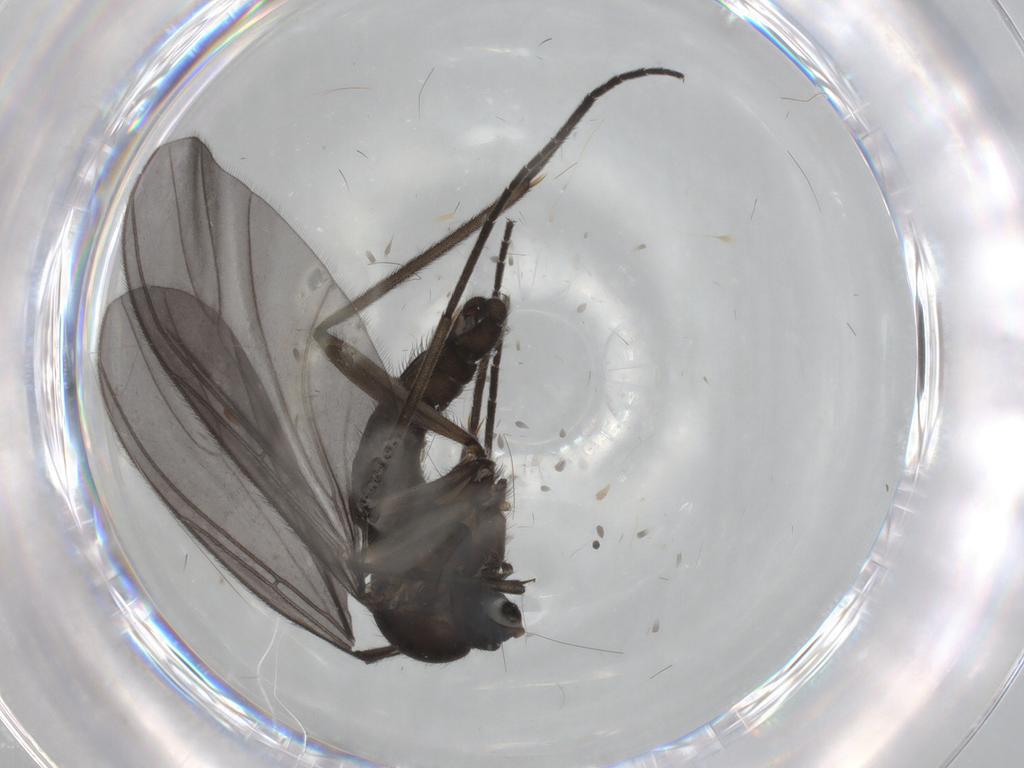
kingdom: Animalia
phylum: Arthropoda
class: Insecta
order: Diptera
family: Sciaridae
